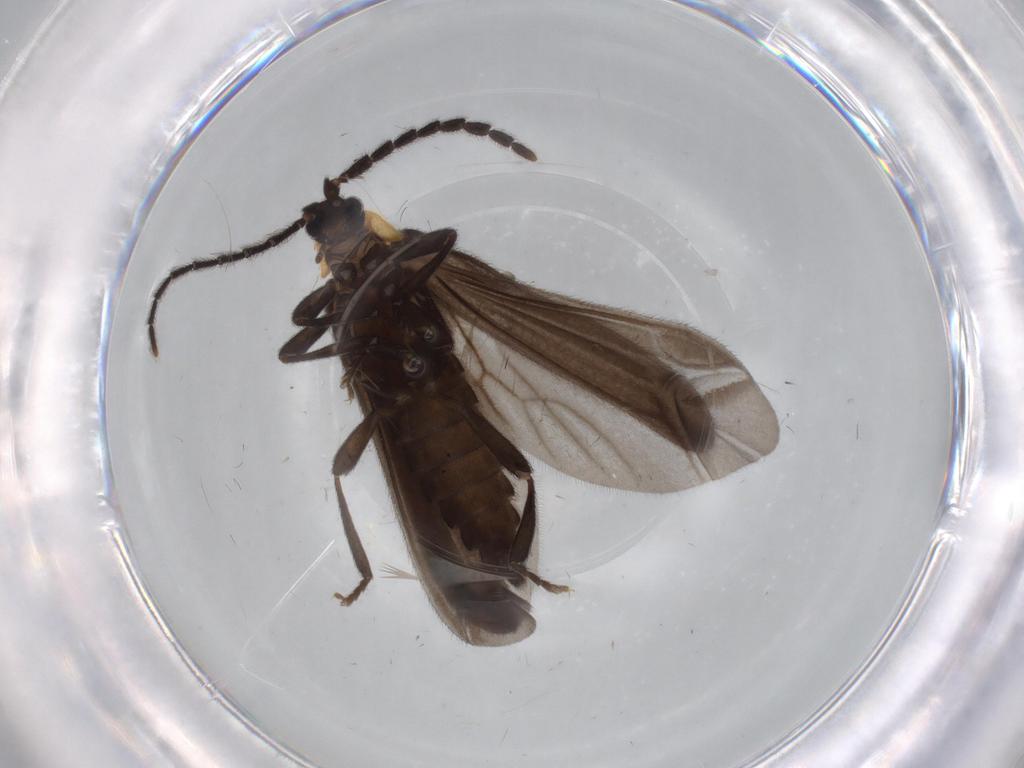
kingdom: Animalia
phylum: Arthropoda
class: Insecta
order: Coleoptera
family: Lycidae
